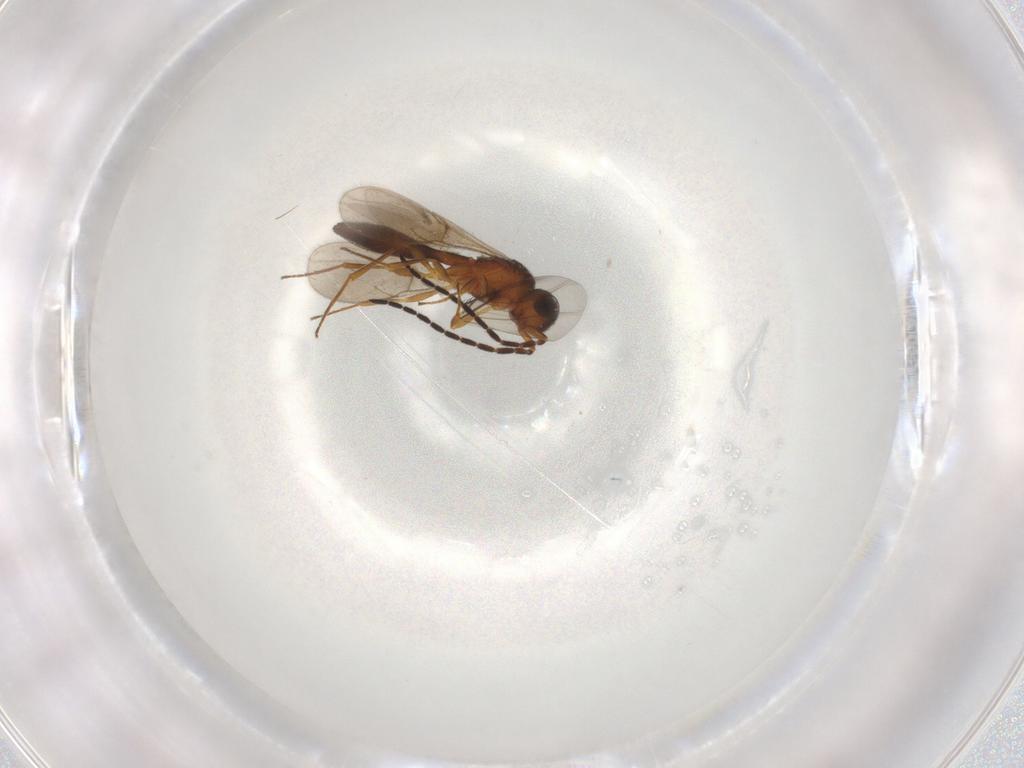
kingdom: Animalia
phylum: Arthropoda
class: Insecta
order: Hymenoptera
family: Scelionidae
